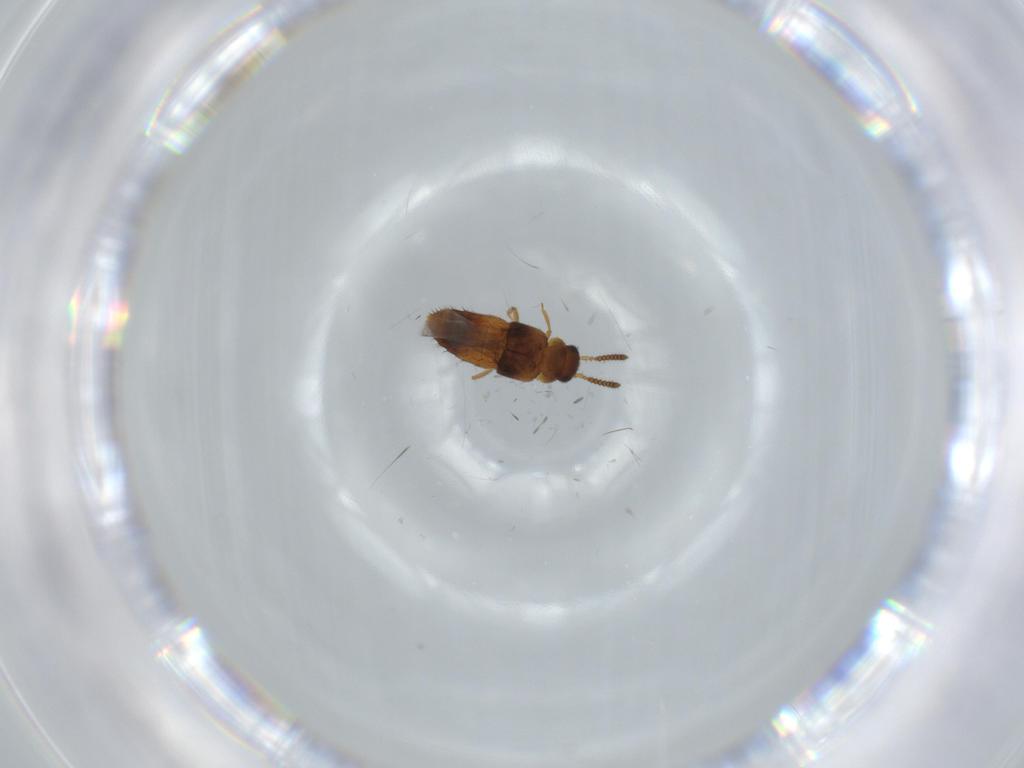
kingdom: Animalia
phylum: Arthropoda
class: Insecta
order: Coleoptera
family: Staphylinidae
